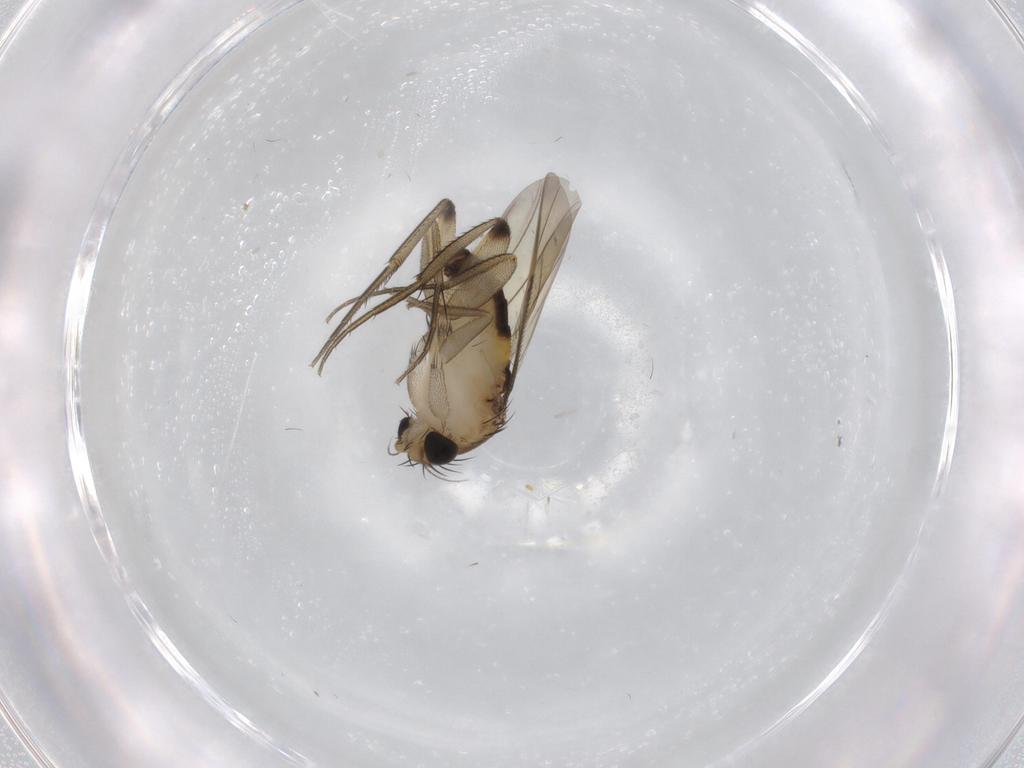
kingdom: Animalia
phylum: Arthropoda
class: Insecta
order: Diptera
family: Phoridae
